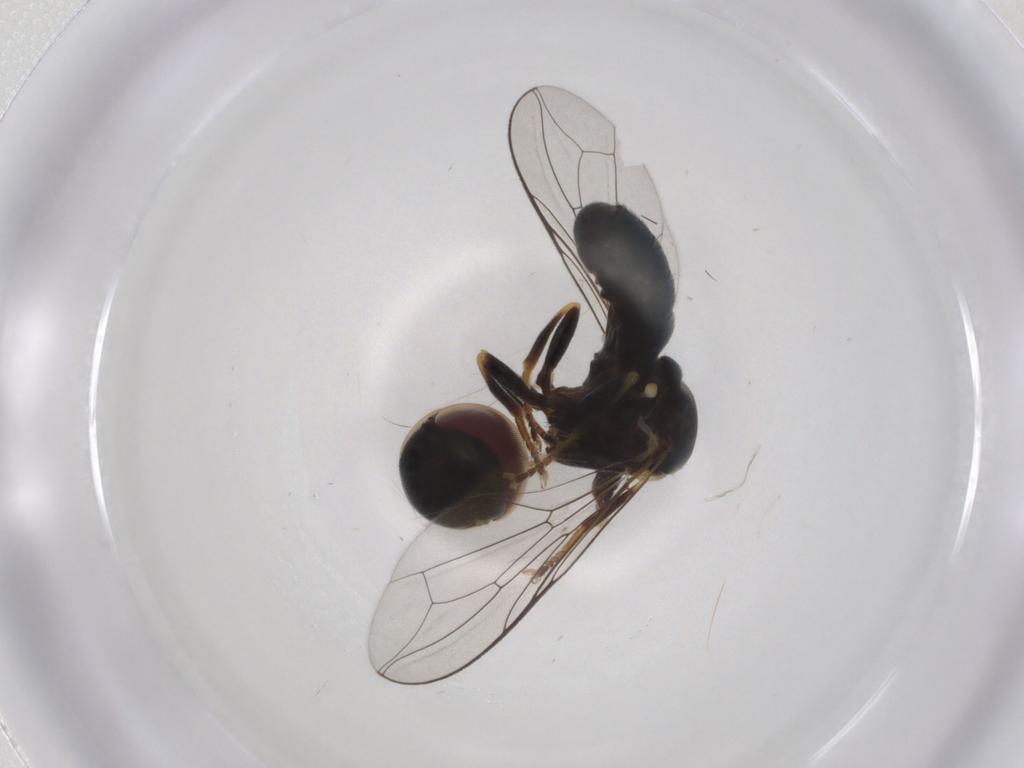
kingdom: Animalia
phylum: Arthropoda
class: Insecta
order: Diptera
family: Pipunculidae
